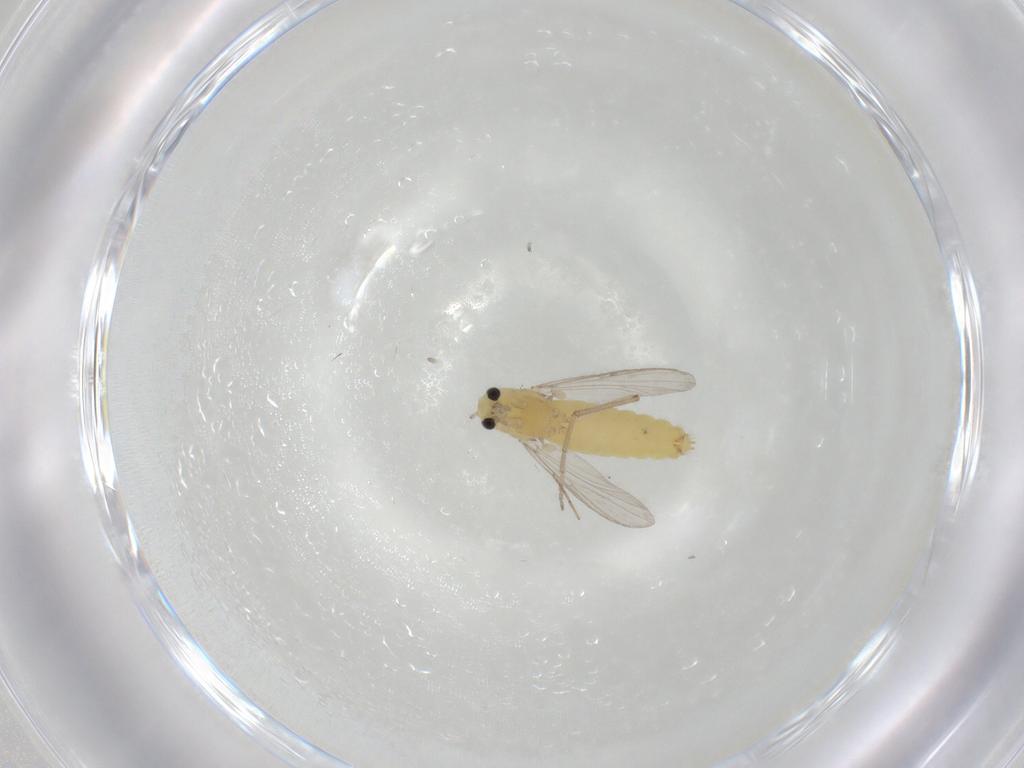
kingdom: Animalia
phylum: Arthropoda
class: Insecta
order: Diptera
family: Chironomidae
